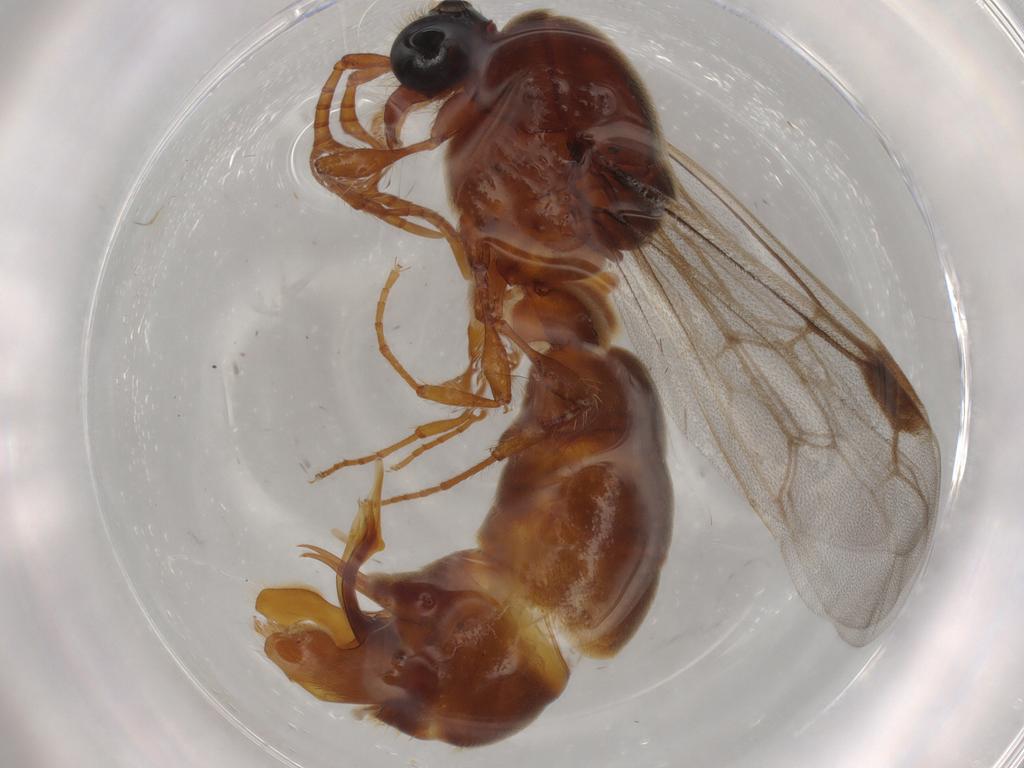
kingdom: Animalia
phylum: Arthropoda
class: Insecta
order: Hymenoptera
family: Formicidae
